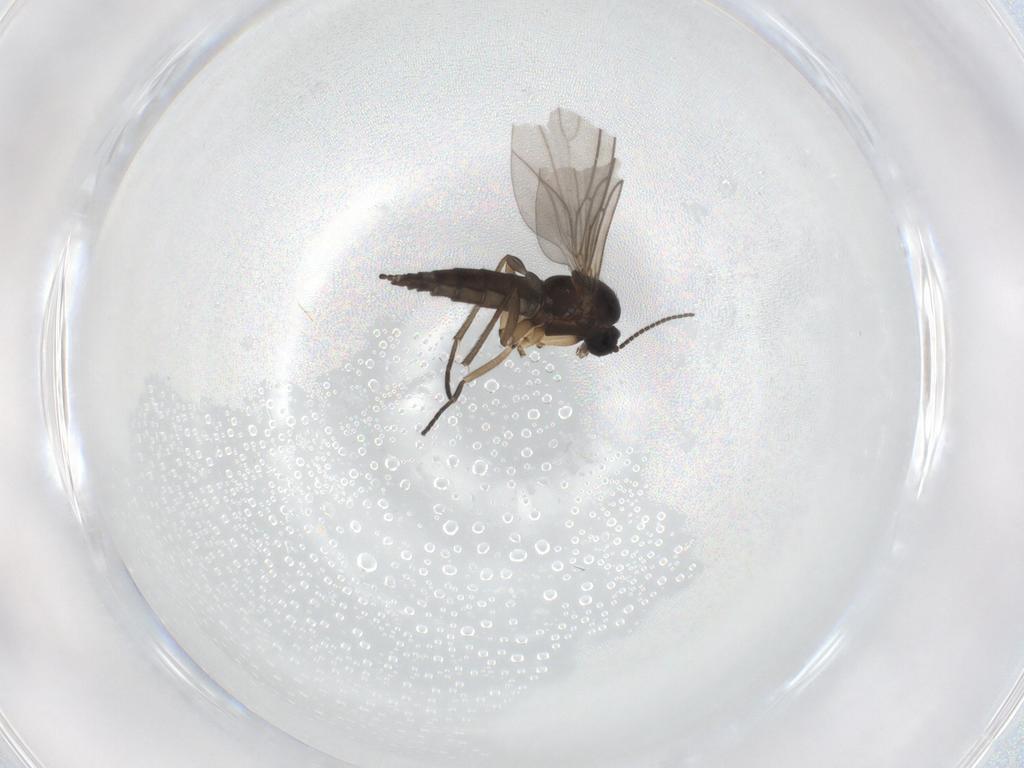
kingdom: Animalia
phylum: Arthropoda
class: Insecta
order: Diptera
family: Sciaridae
